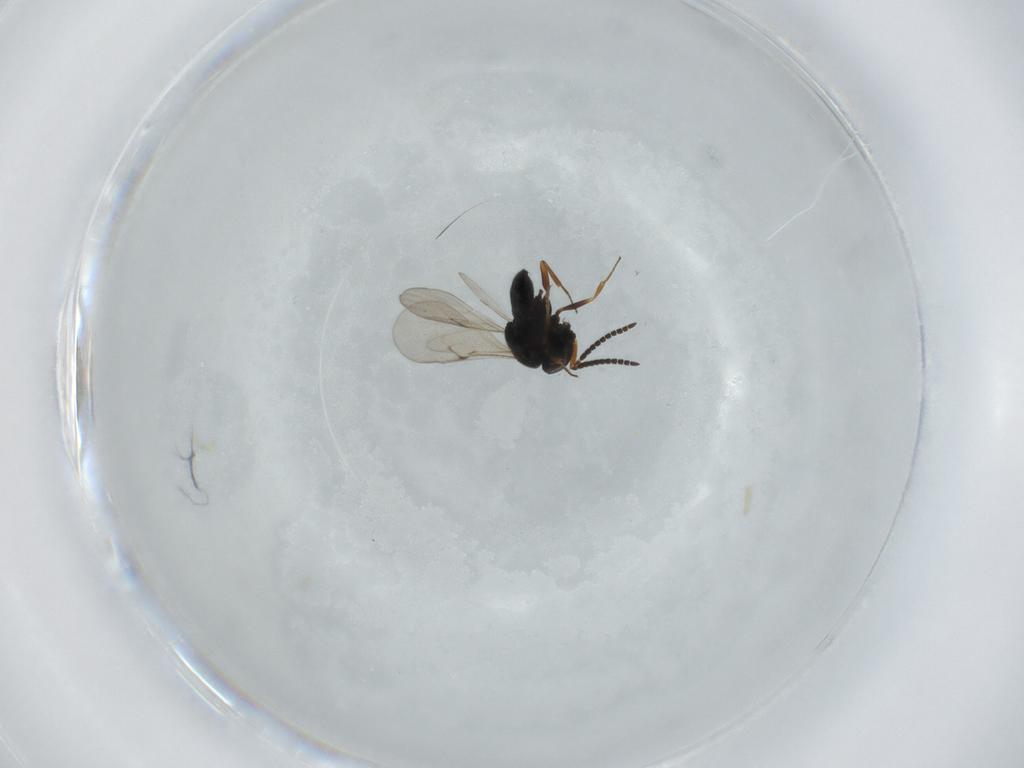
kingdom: Animalia
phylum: Arthropoda
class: Insecta
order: Hymenoptera
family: Scelionidae
